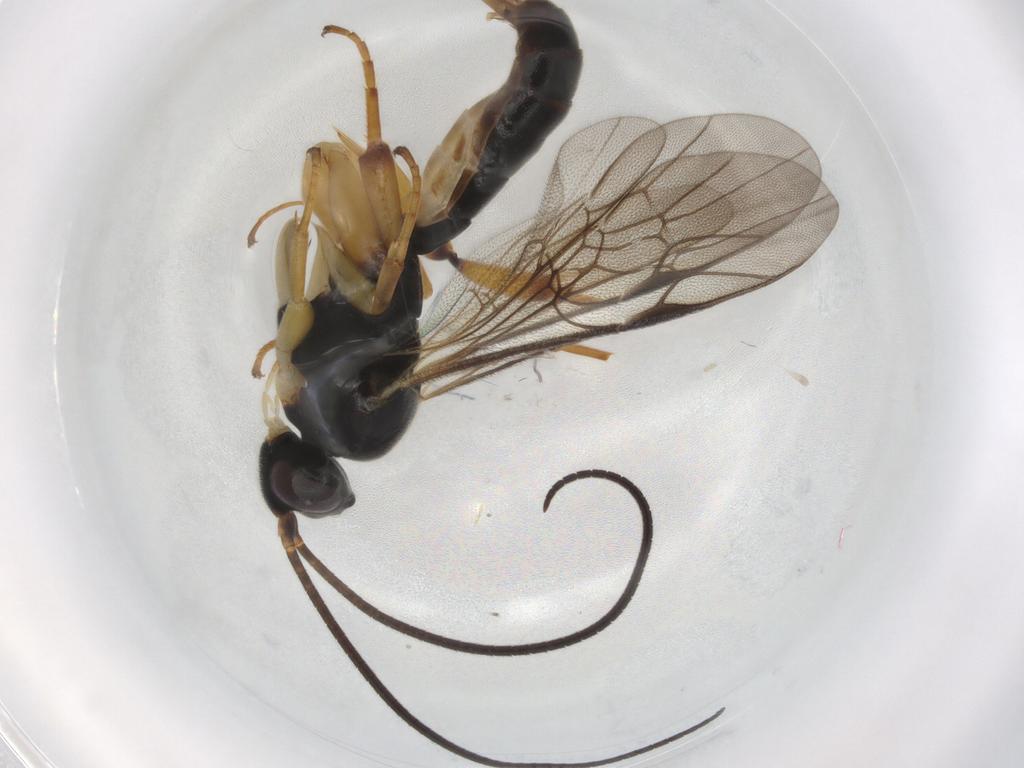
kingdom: Animalia
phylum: Arthropoda
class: Insecta
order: Hymenoptera
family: Ichneumonidae
